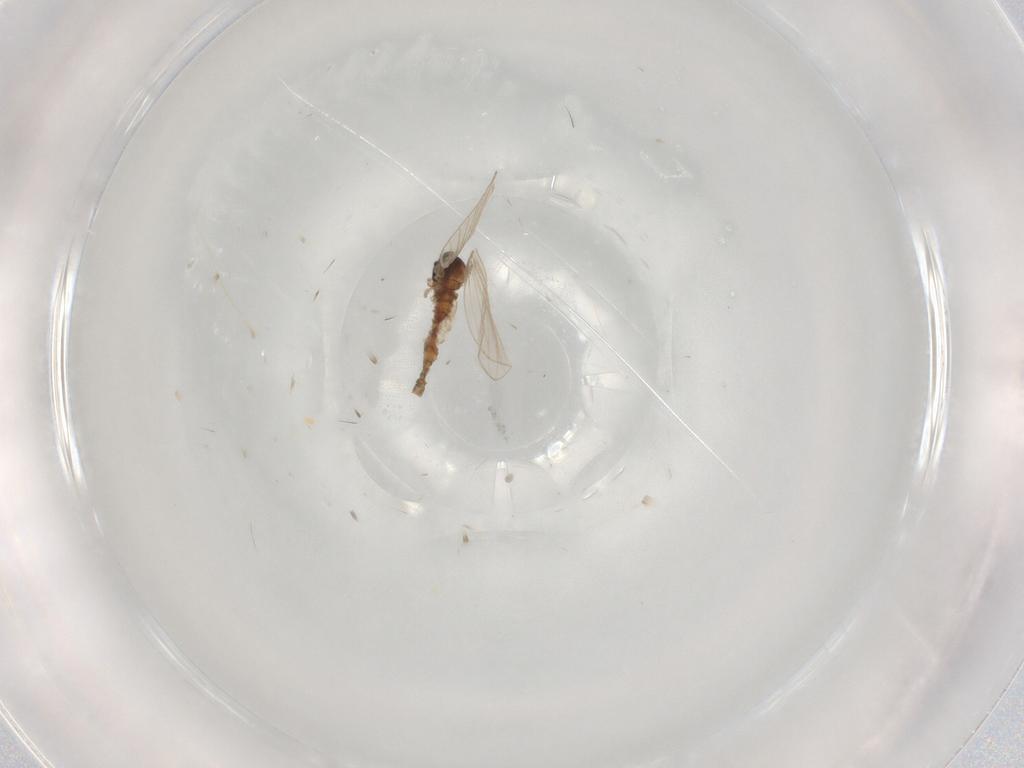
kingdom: Animalia
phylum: Arthropoda
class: Insecta
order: Diptera
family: Psychodidae
